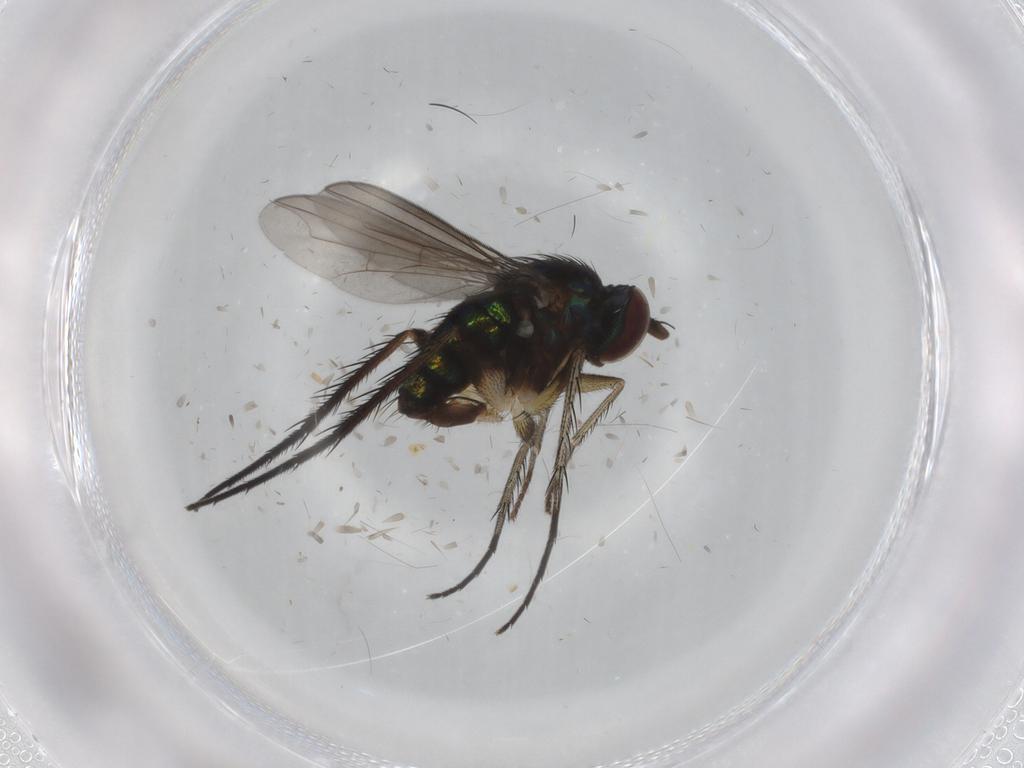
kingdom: Animalia
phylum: Arthropoda
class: Insecta
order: Diptera
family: Dolichopodidae
